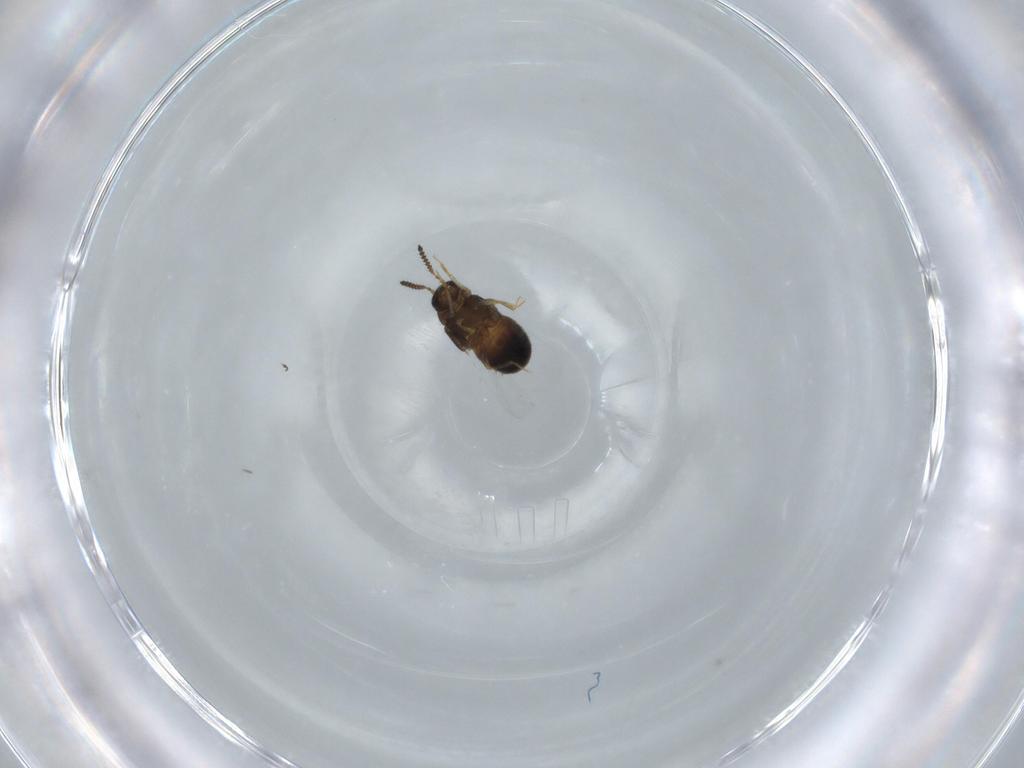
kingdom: Animalia
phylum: Arthropoda
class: Insecta
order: Coleoptera
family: Staphylinidae
